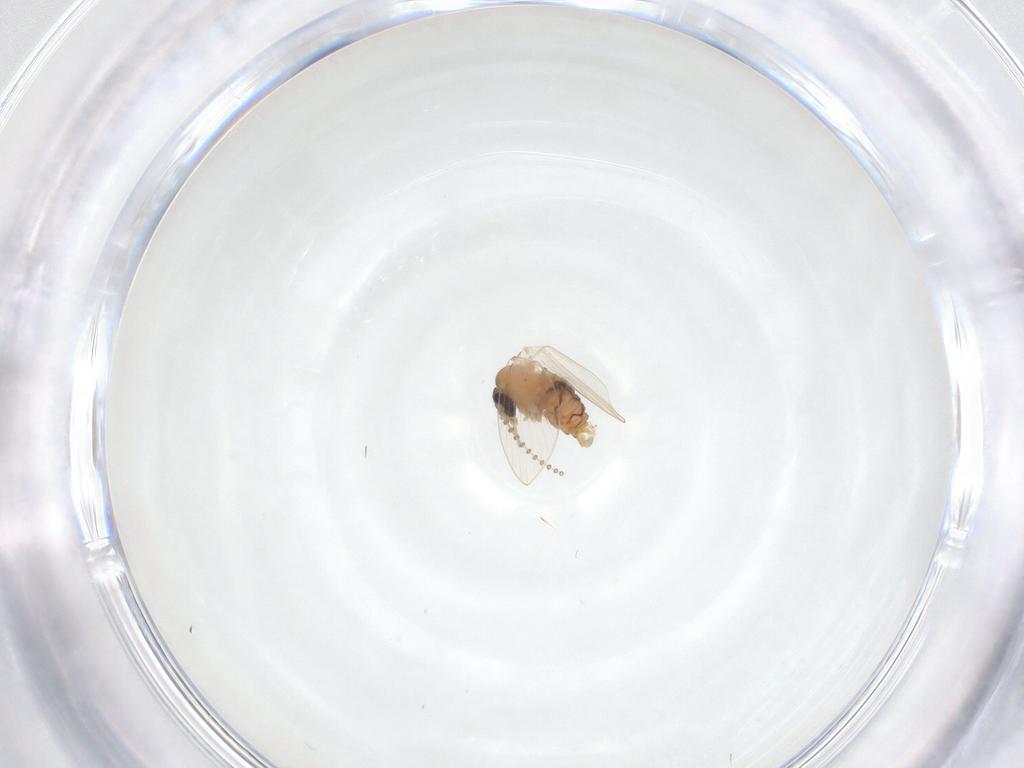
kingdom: Animalia
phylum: Arthropoda
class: Insecta
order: Diptera
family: Psychodidae
